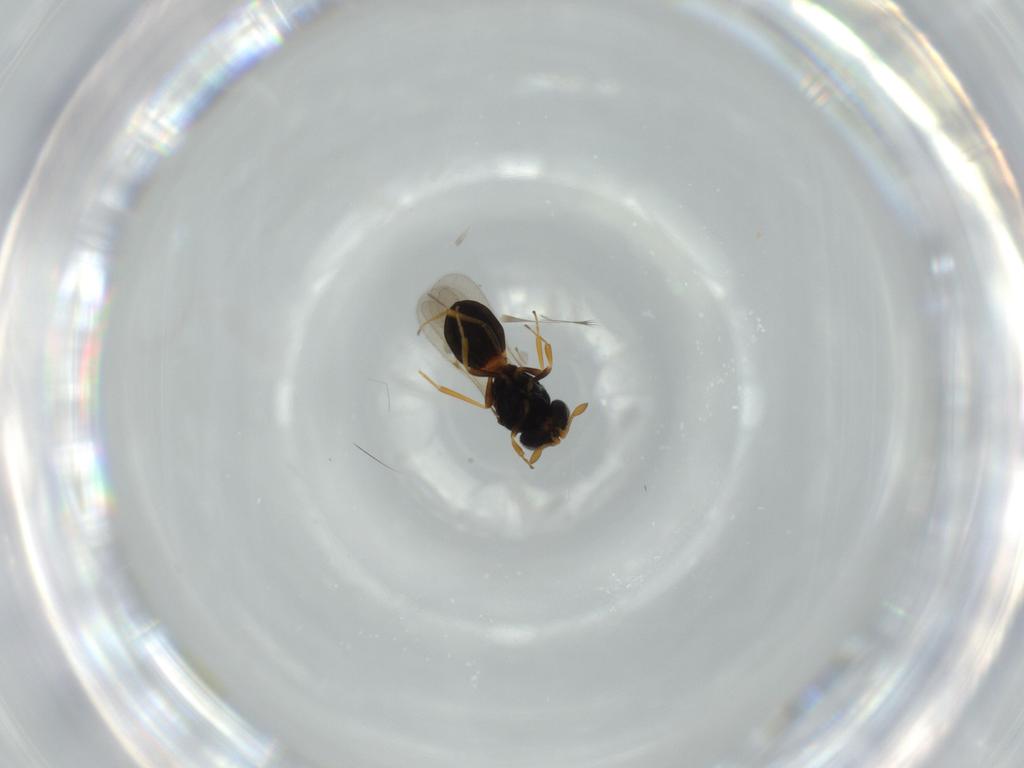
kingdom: Animalia
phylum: Arthropoda
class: Insecta
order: Hymenoptera
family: Scelionidae
